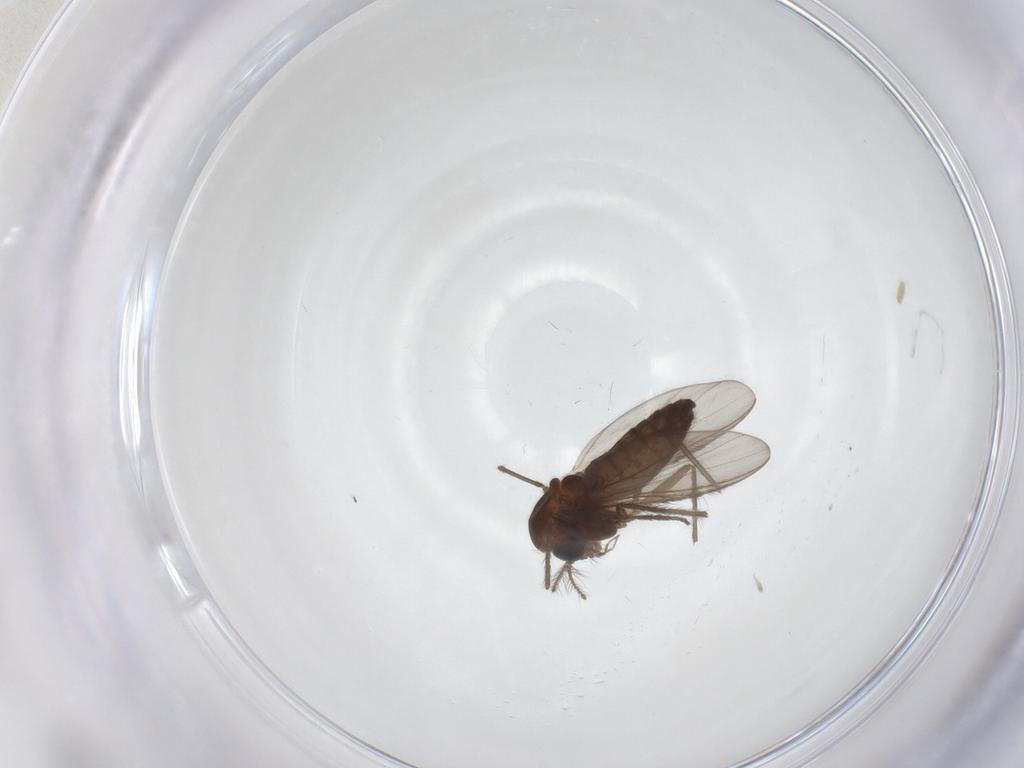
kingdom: Animalia
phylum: Arthropoda
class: Insecta
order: Diptera
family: Chironomidae
